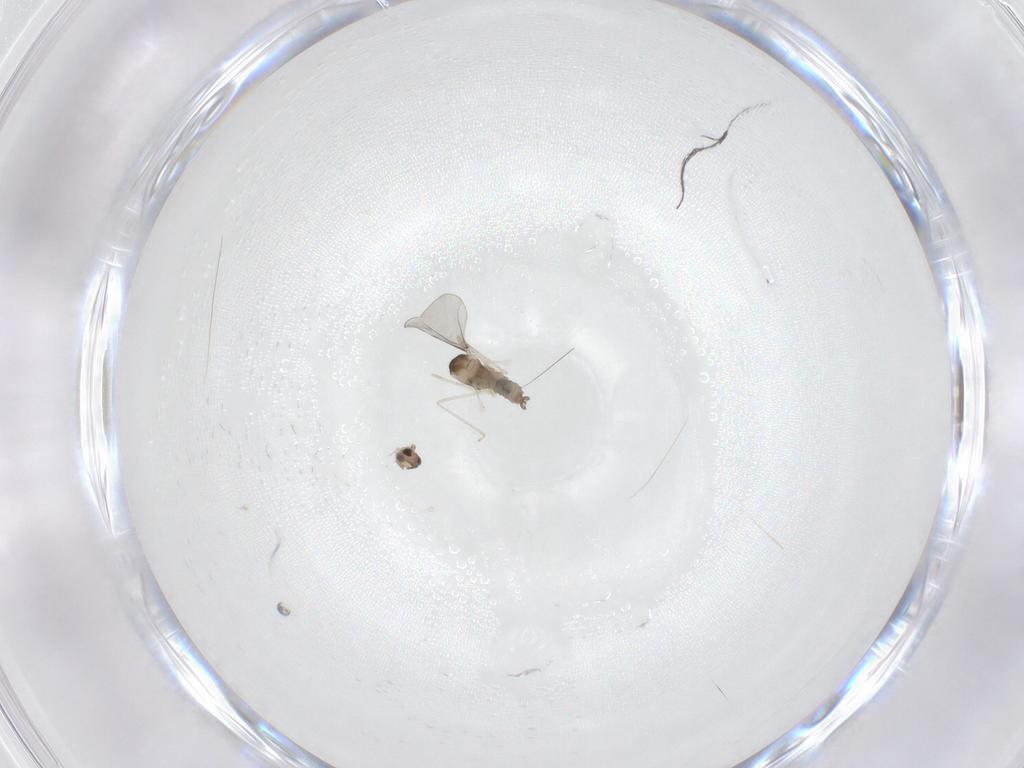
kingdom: Animalia
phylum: Arthropoda
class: Insecta
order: Diptera
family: Cecidomyiidae
